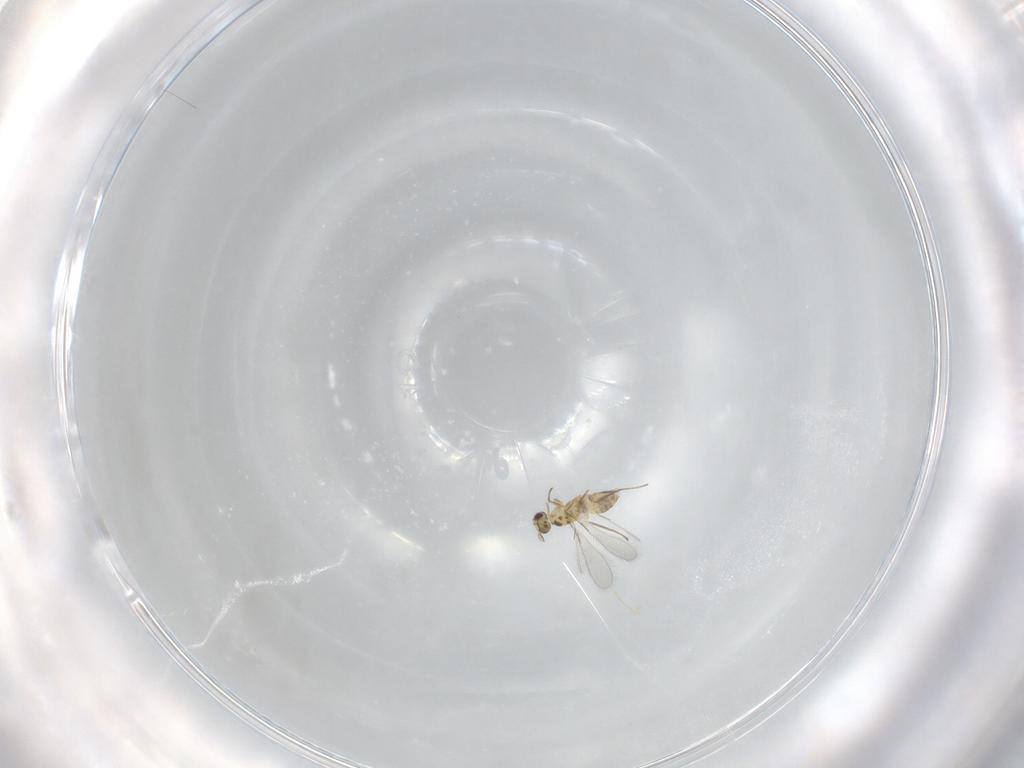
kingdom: Animalia
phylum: Arthropoda
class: Insecta
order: Hymenoptera
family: Mymaridae
